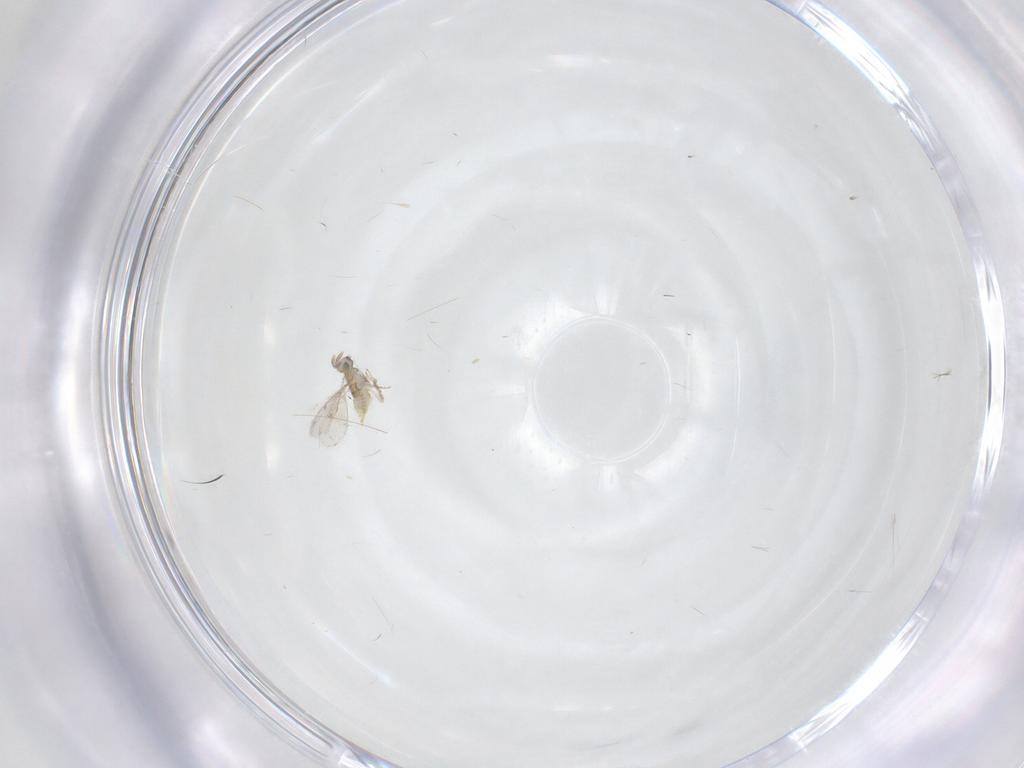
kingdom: Animalia
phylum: Arthropoda
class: Insecta
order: Hymenoptera
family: Aphelinidae
